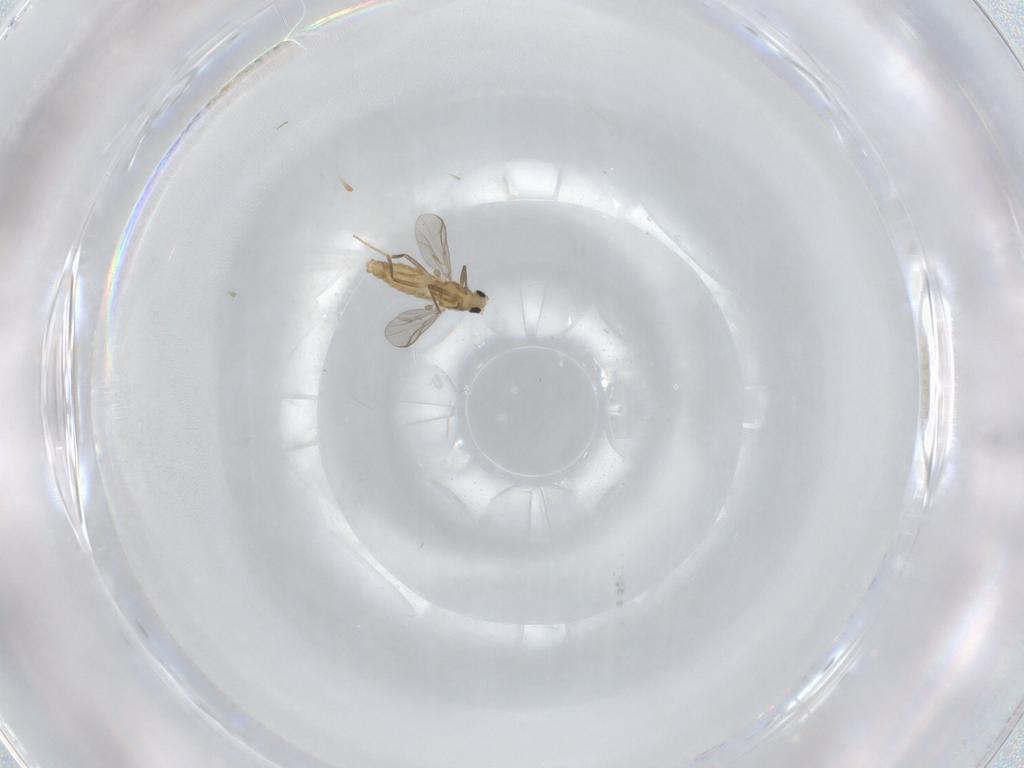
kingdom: Animalia
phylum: Arthropoda
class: Insecta
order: Diptera
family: Chironomidae
